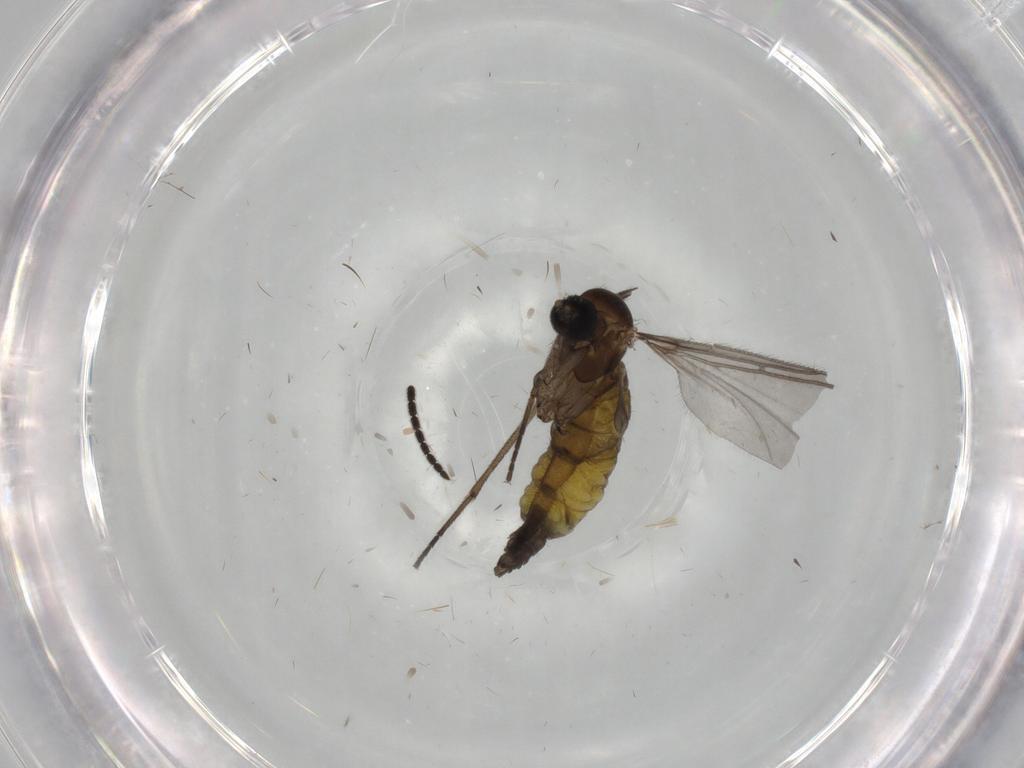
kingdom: Animalia
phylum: Arthropoda
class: Insecta
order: Diptera
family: Sciaridae
